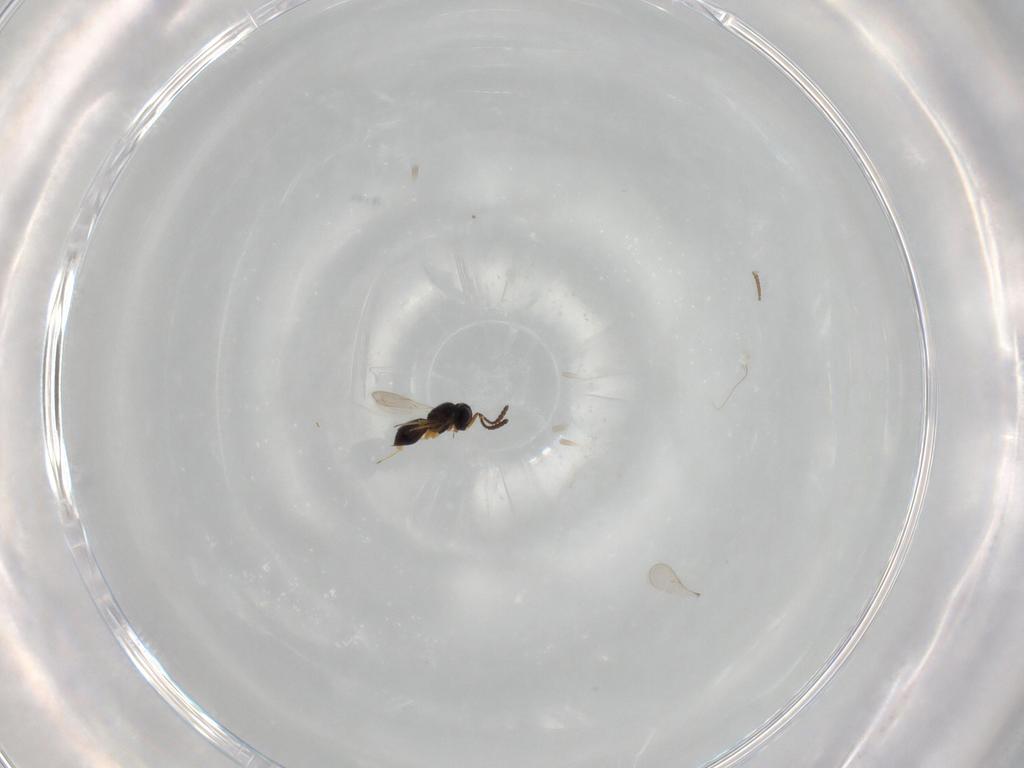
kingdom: Animalia
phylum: Arthropoda
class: Insecta
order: Hymenoptera
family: Scelionidae
